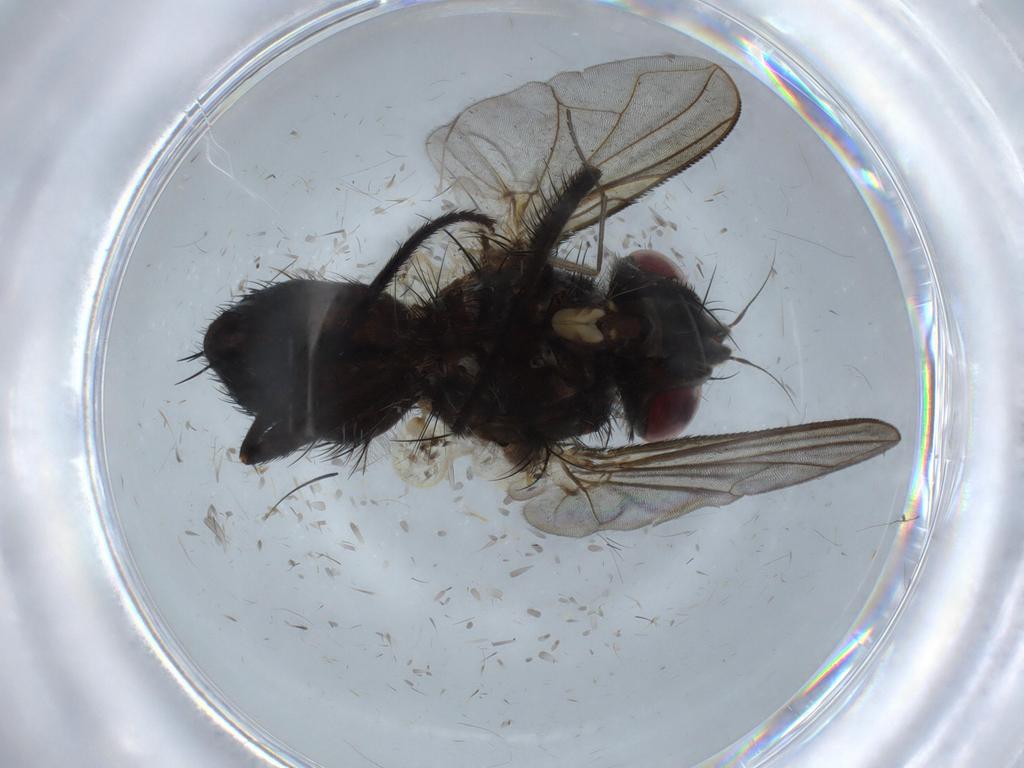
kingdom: Animalia
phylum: Arthropoda
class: Insecta
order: Diptera
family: Tachinidae
